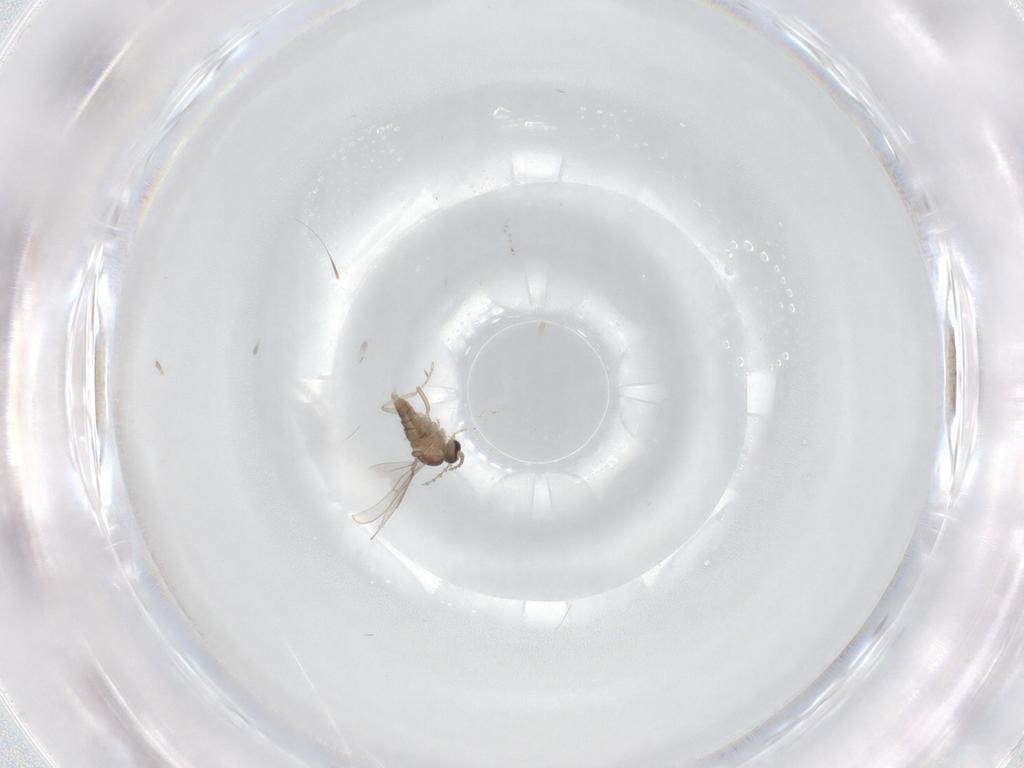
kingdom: Animalia
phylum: Arthropoda
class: Insecta
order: Diptera
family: Cecidomyiidae
